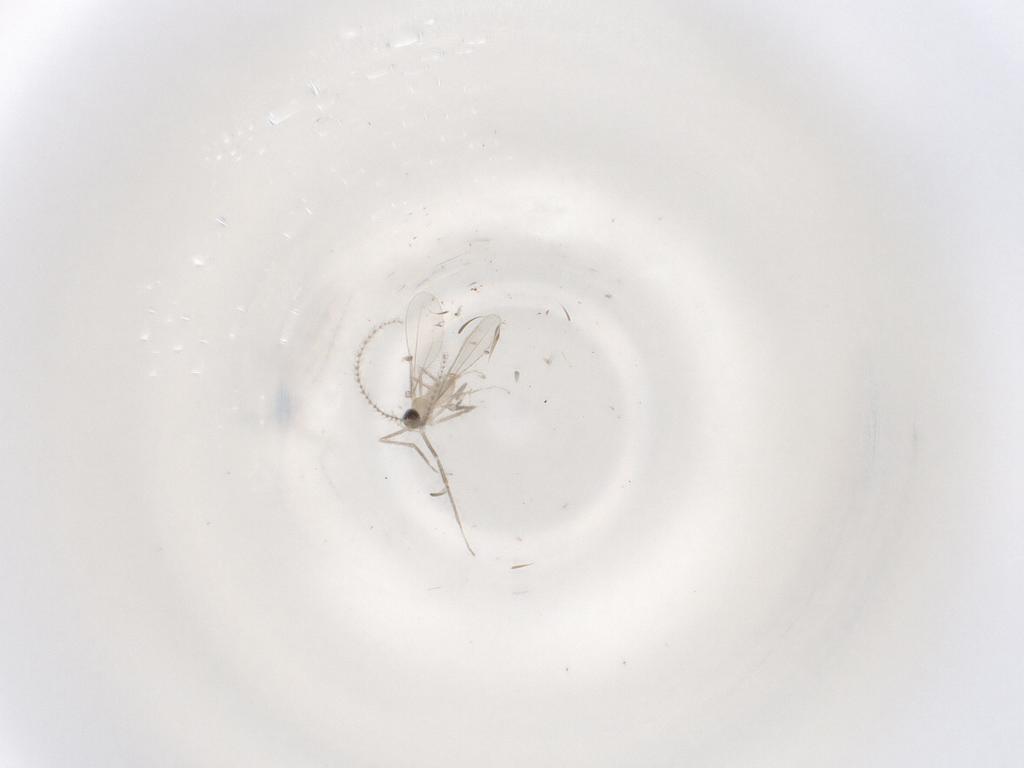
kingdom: Animalia
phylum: Arthropoda
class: Insecta
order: Diptera
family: Cecidomyiidae
